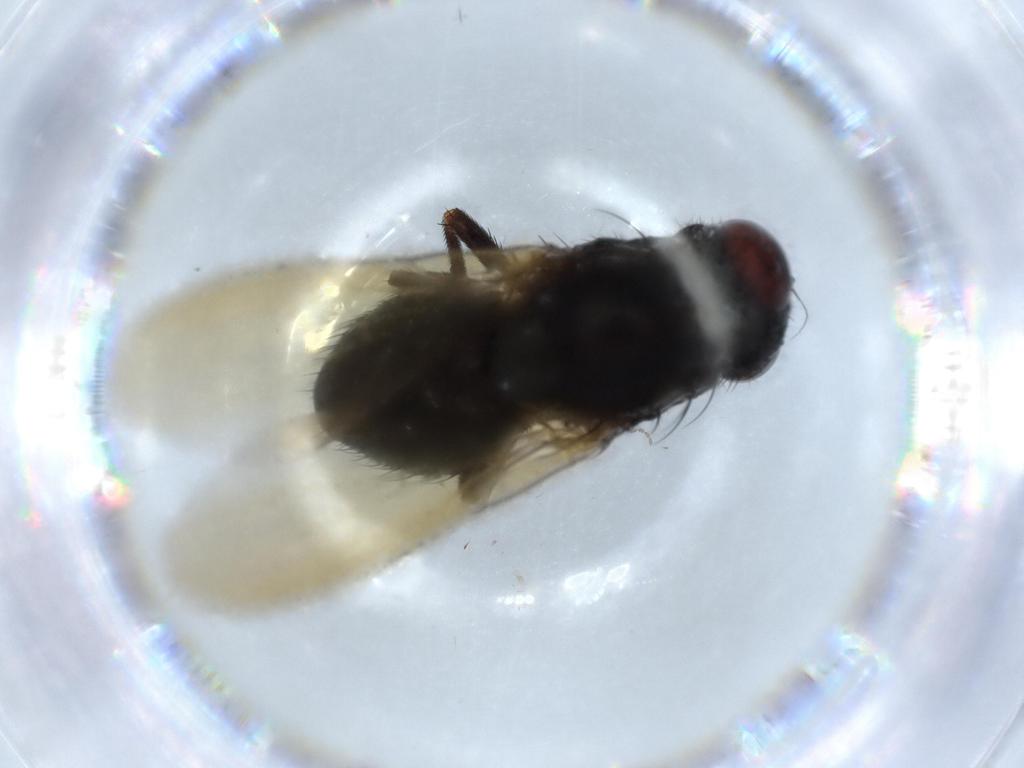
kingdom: Animalia
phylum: Arthropoda
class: Insecta
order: Diptera
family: Lauxaniidae
